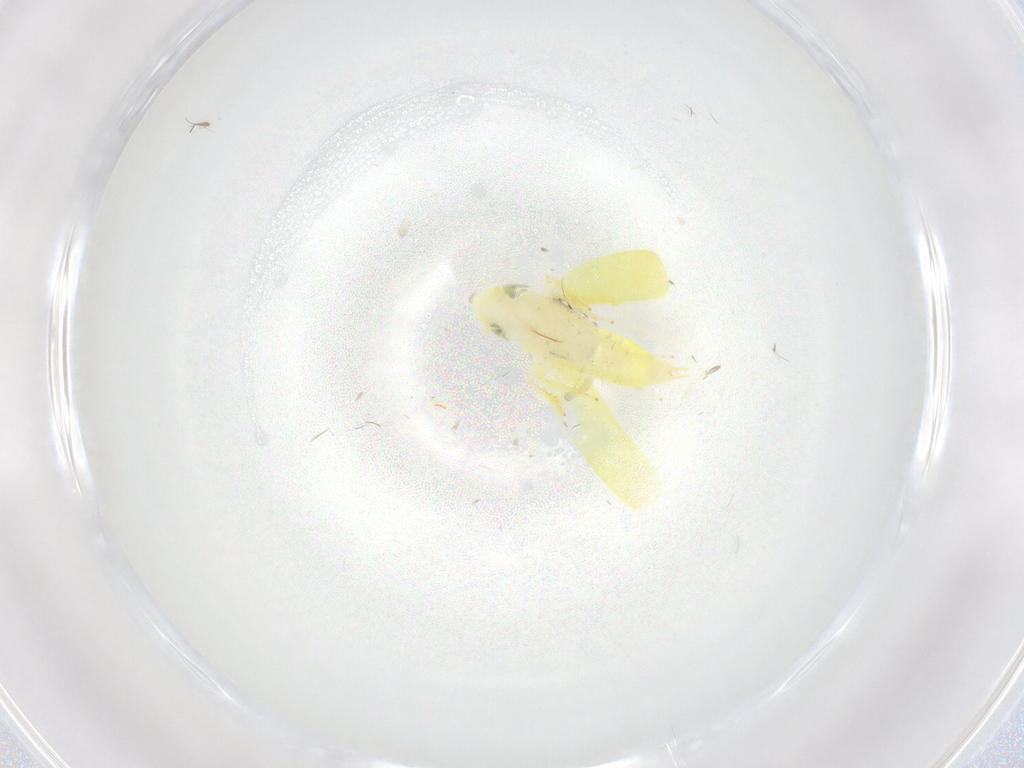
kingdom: Animalia
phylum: Arthropoda
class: Insecta
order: Hemiptera
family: Cicadellidae
